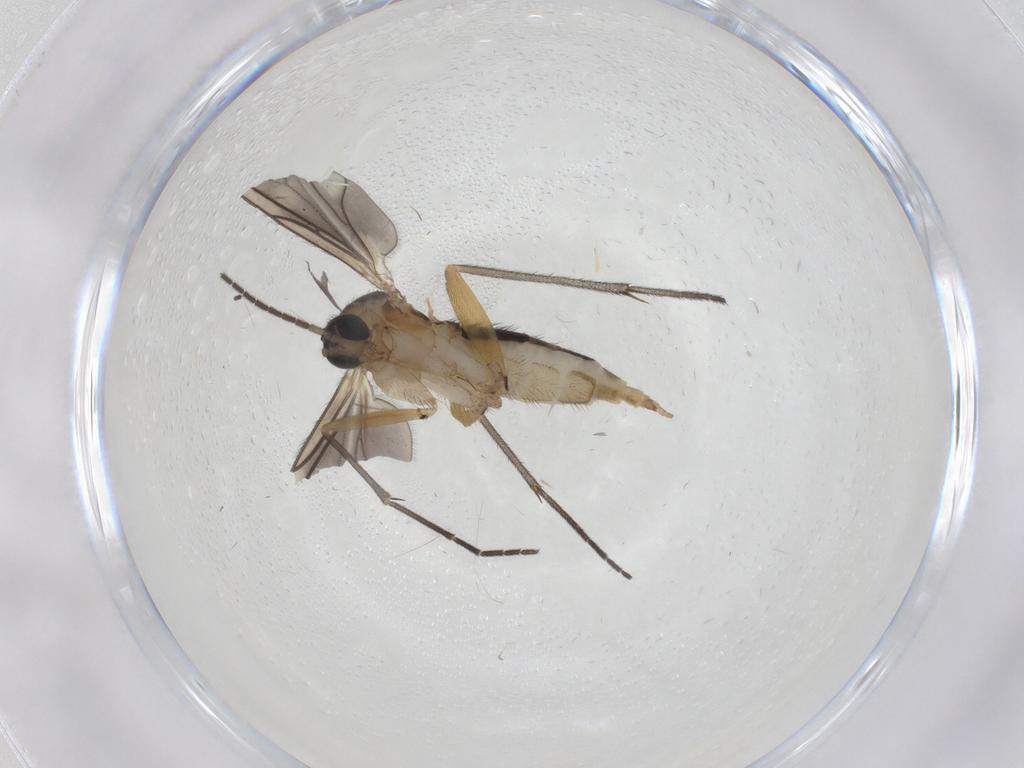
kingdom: Animalia
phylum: Arthropoda
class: Insecta
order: Diptera
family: Sciaridae
